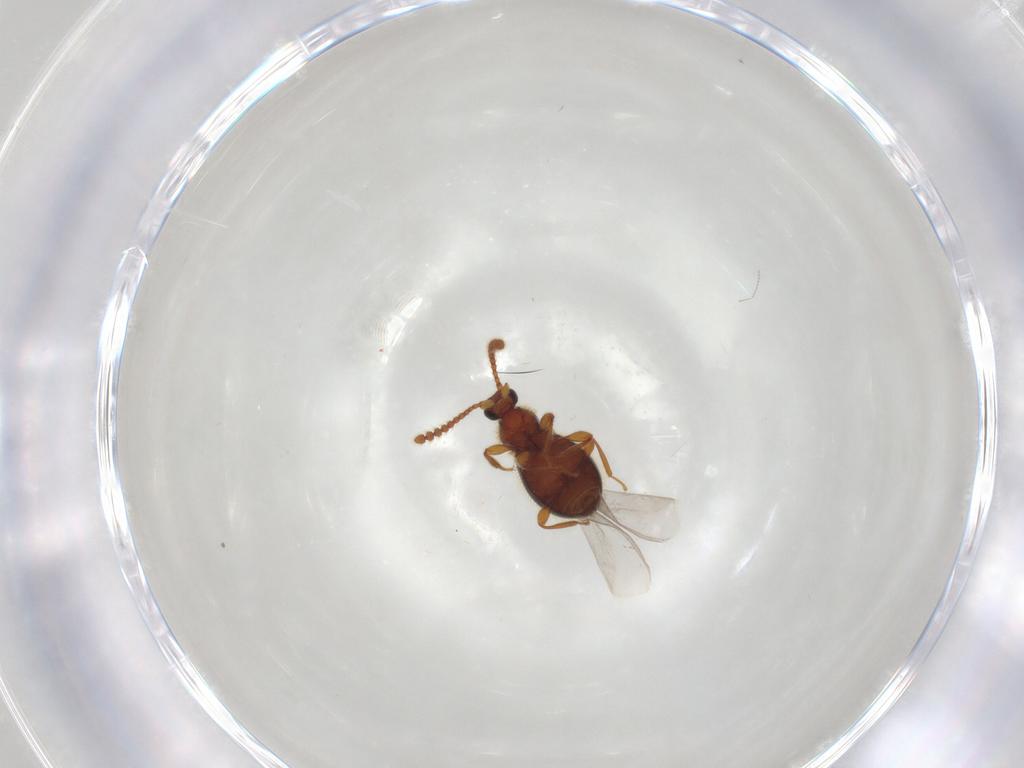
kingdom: Animalia
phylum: Arthropoda
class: Insecta
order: Coleoptera
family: Staphylinidae
